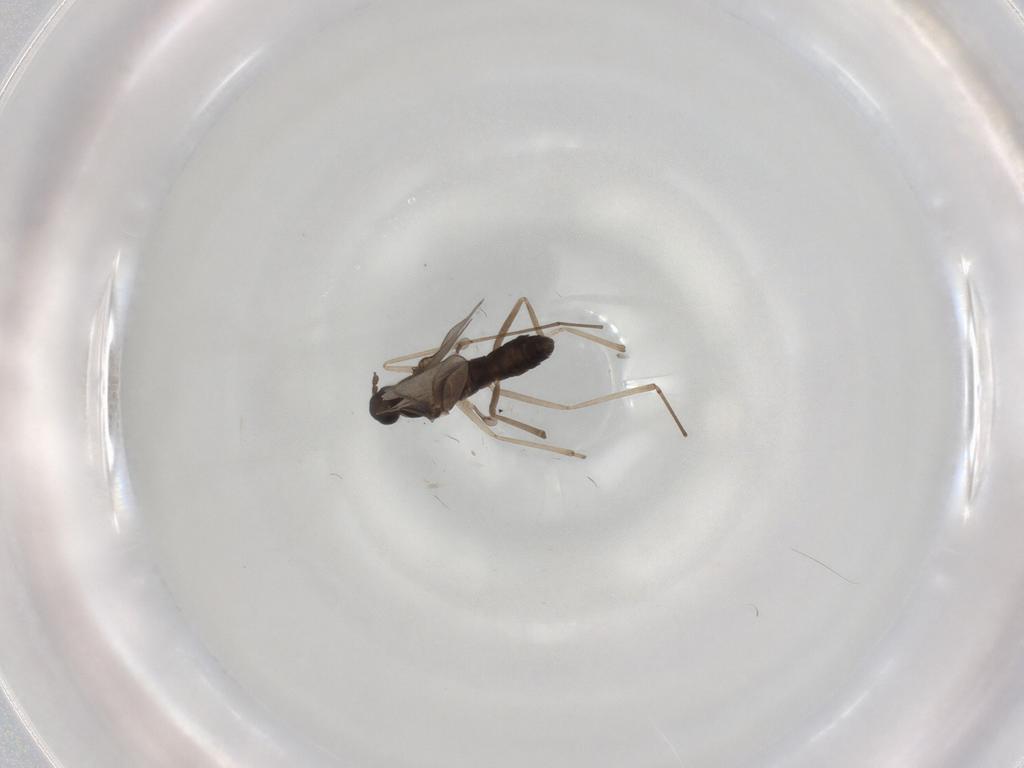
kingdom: Animalia
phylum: Arthropoda
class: Insecta
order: Diptera
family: Cecidomyiidae
